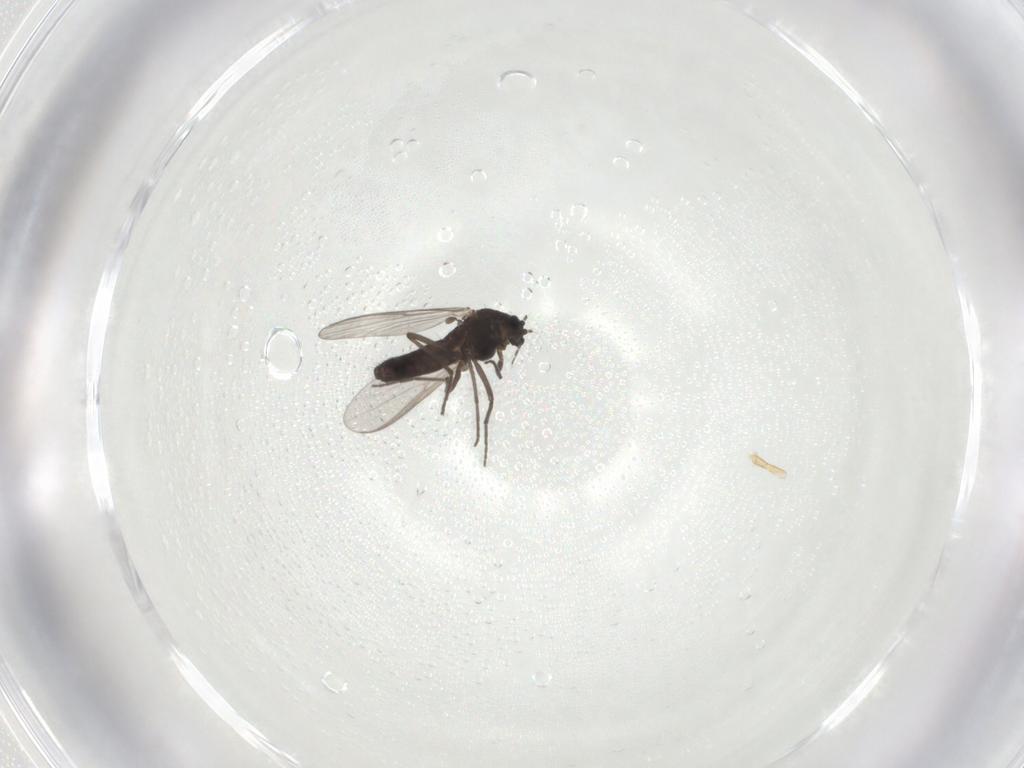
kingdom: Animalia
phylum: Arthropoda
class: Insecta
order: Diptera
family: Chironomidae
